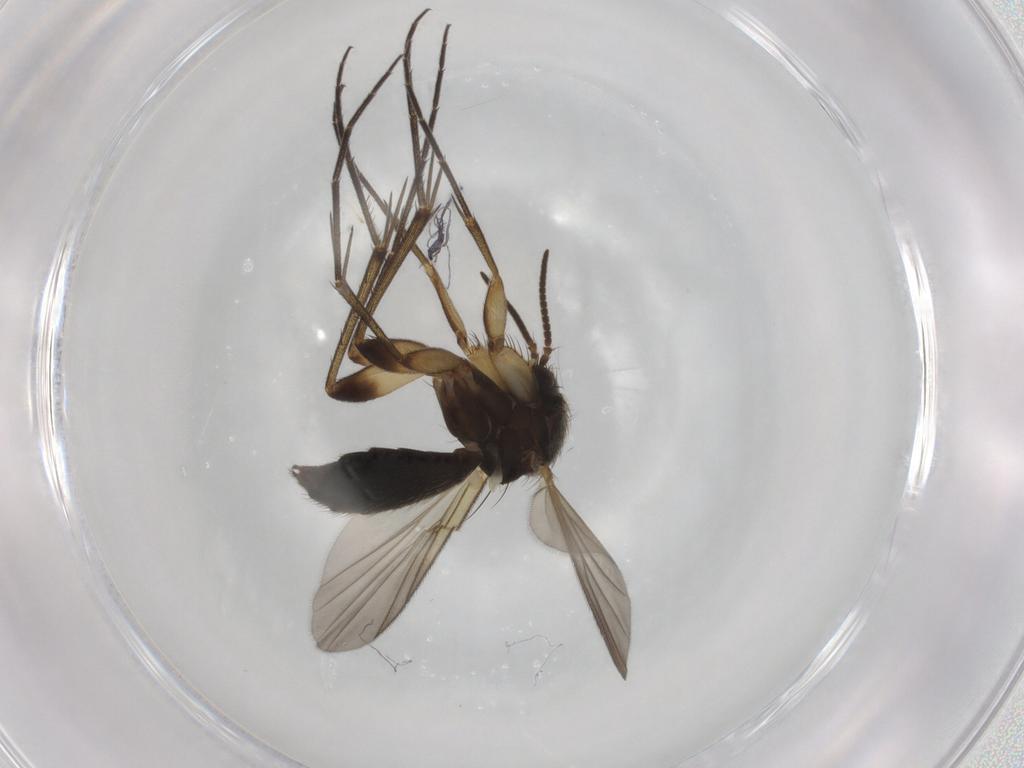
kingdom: Animalia
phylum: Arthropoda
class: Insecta
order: Diptera
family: Mycetophilidae
